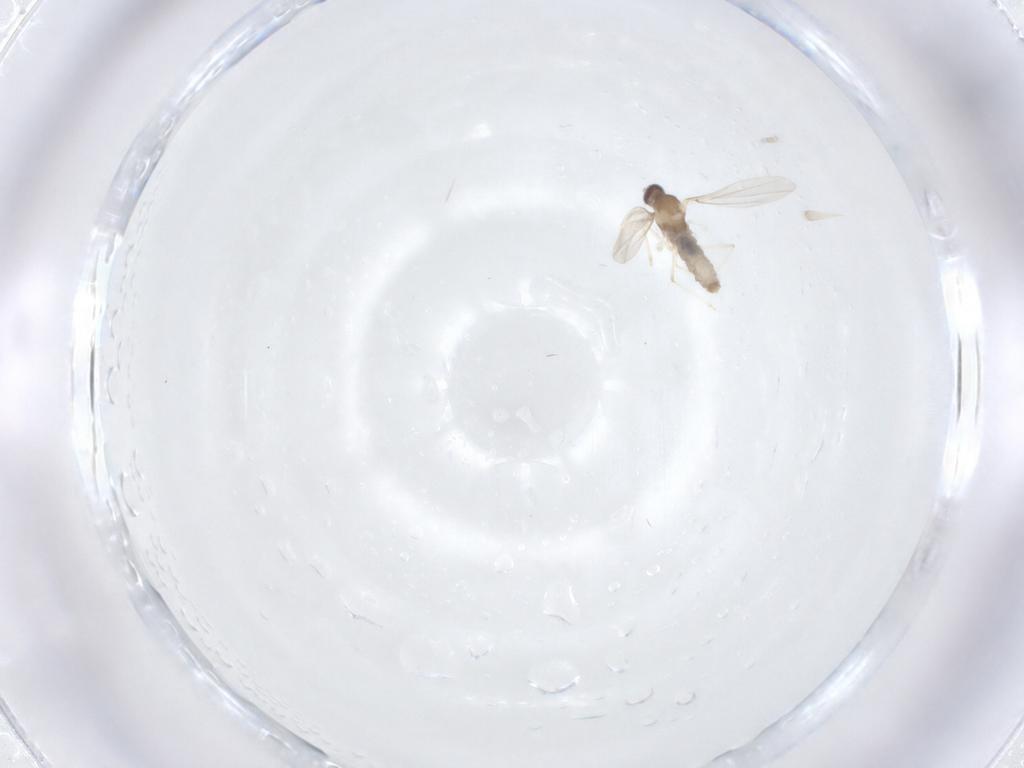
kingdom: Animalia
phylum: Arthropoda
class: Insecta
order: Diptera
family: Cecidomyiidae
